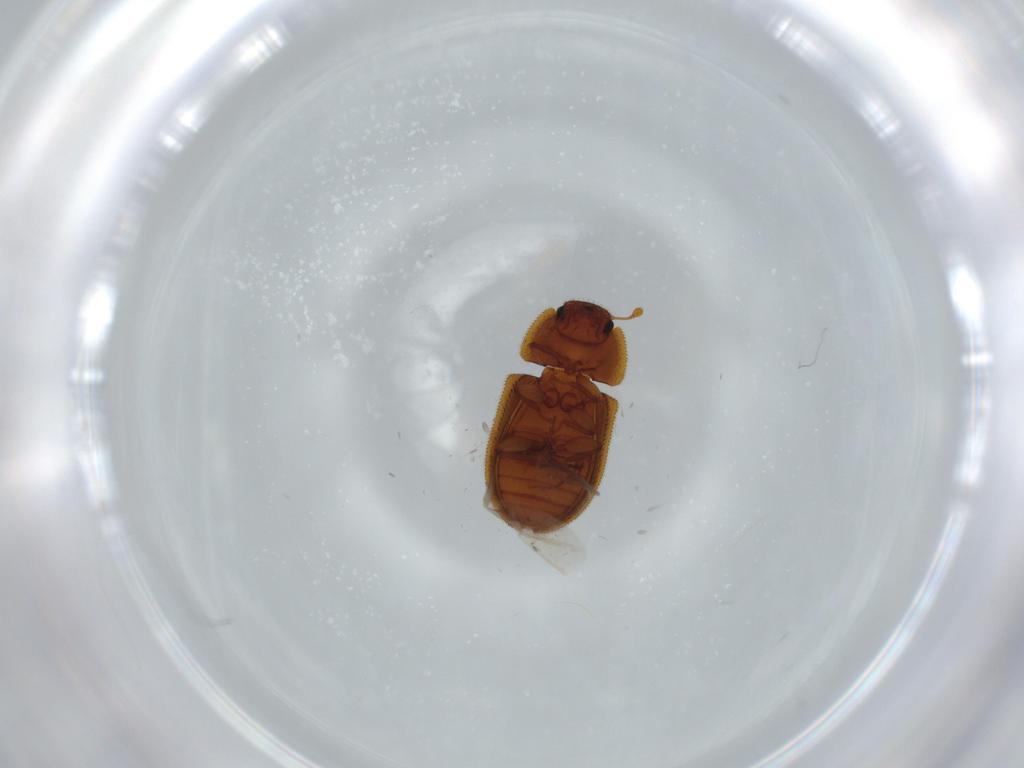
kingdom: Animalia
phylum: Arthropoda
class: Insecta
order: Coleoptera
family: Zopheridae
